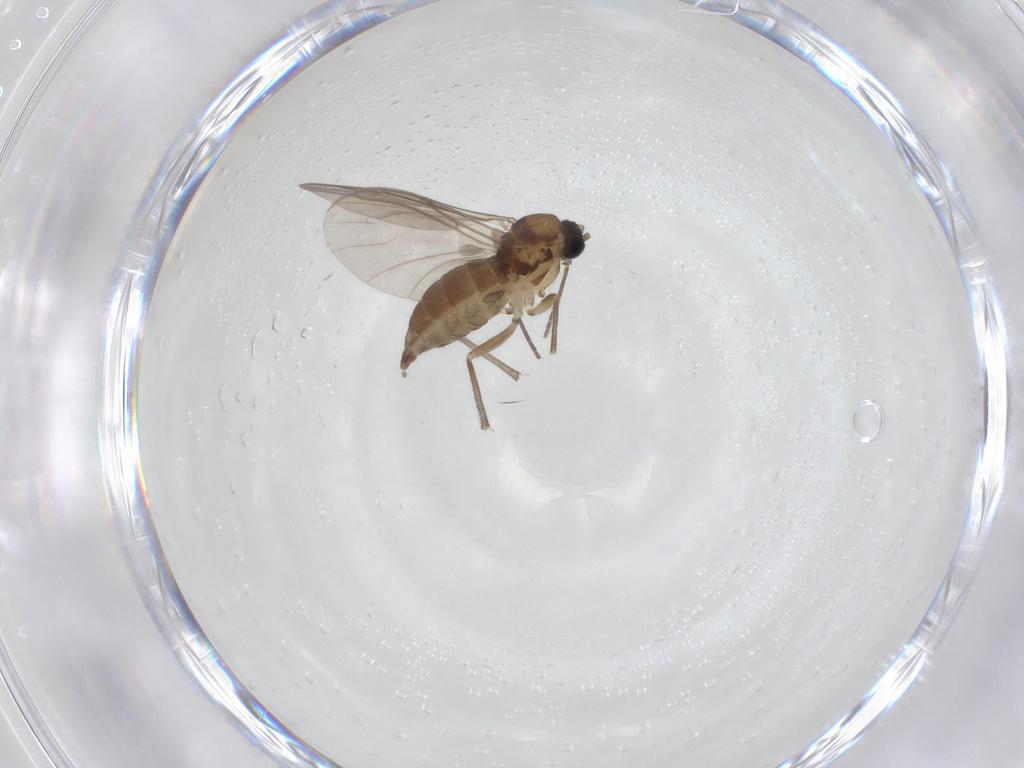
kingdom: Animalia
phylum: Arthropoda
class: Insecta
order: Diptera
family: Sciaridae
